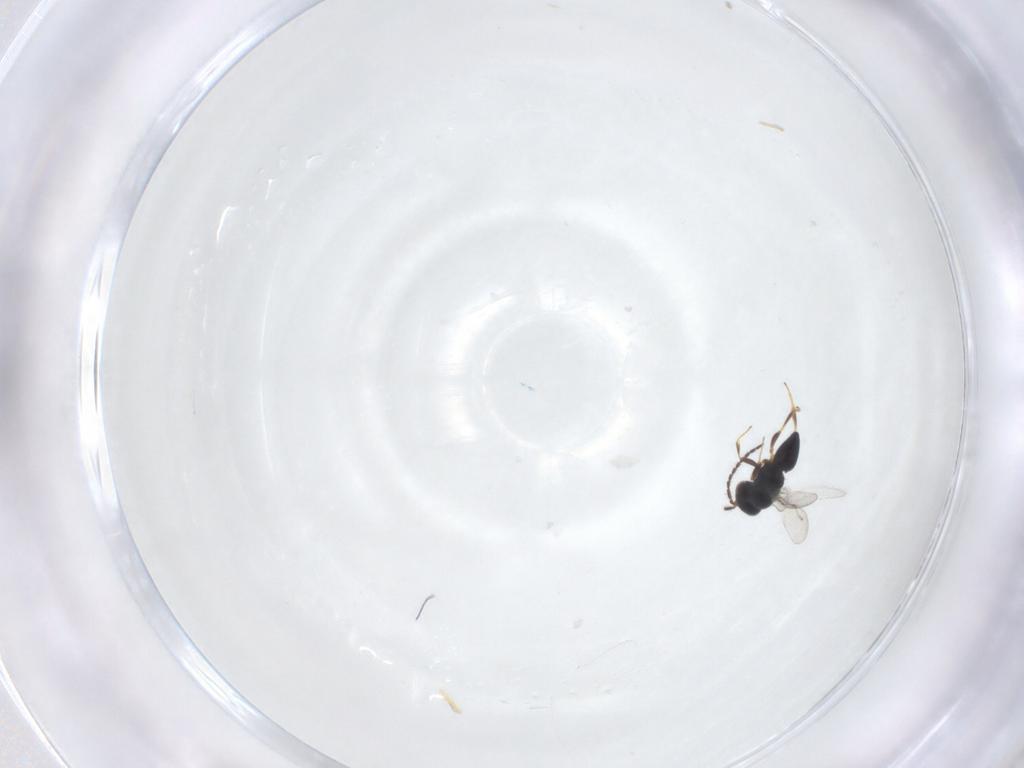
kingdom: Animalia
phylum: Arthropoda
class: Insecta
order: Hymenoptera
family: Ceraphronidae
